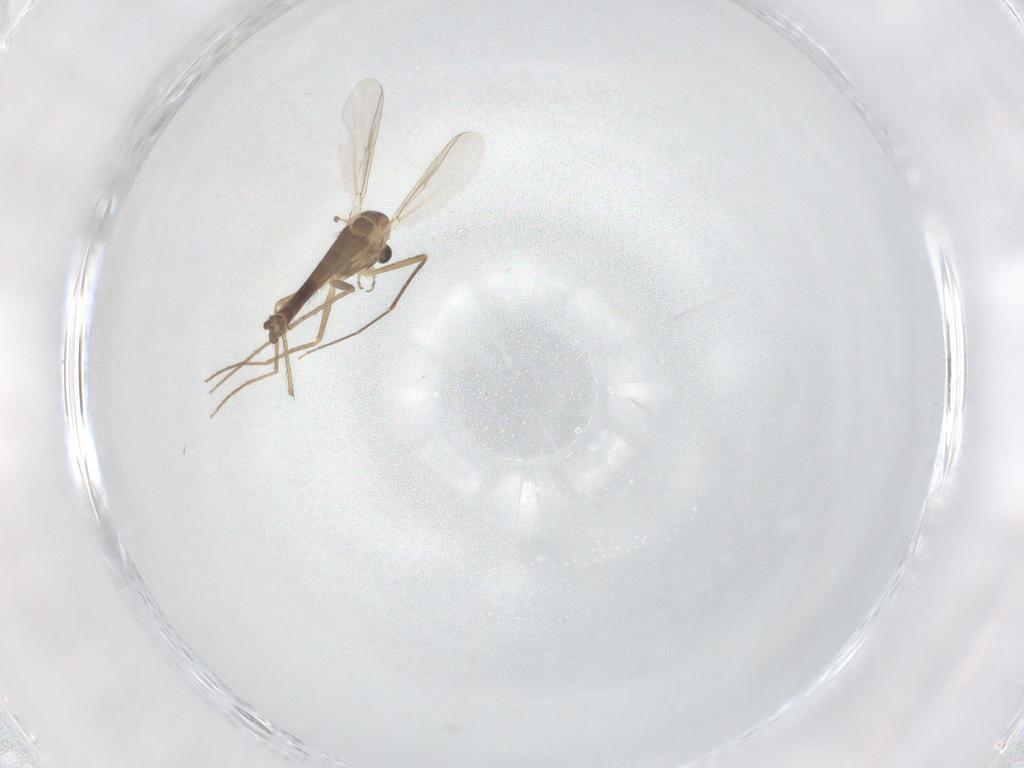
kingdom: Animalia
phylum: Arthropoda
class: Insecta
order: Diptera
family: Chironomidae
